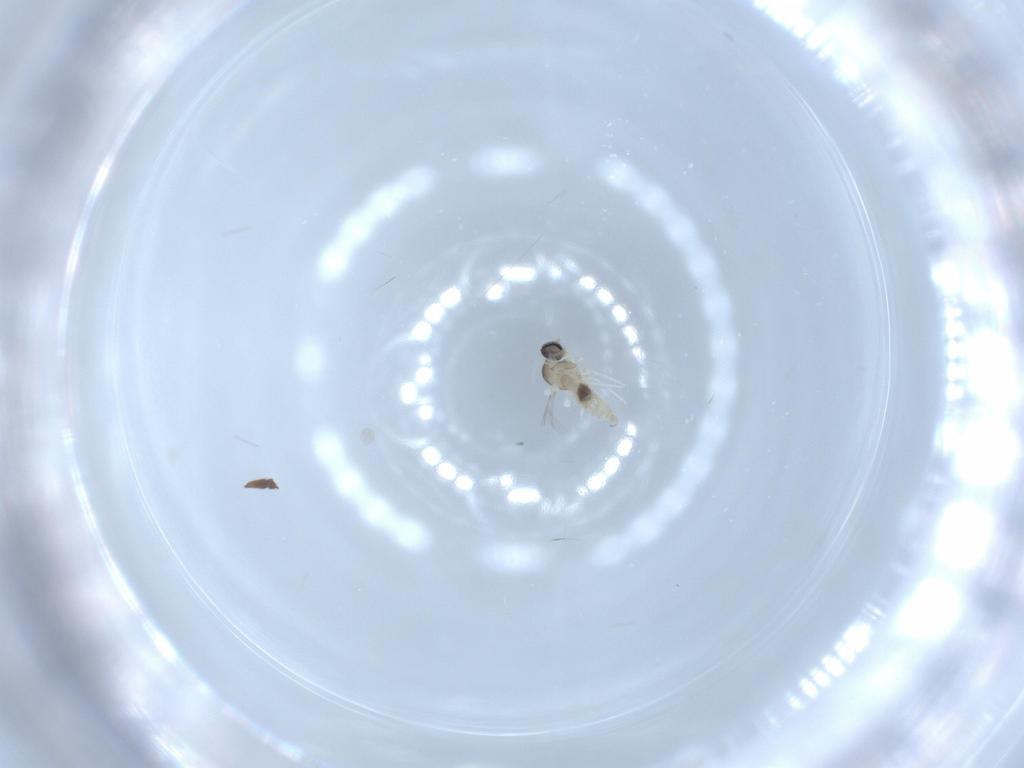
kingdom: Animalia
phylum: Arthropoda
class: Insecta
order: Diptera
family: Cecidomyiidae
